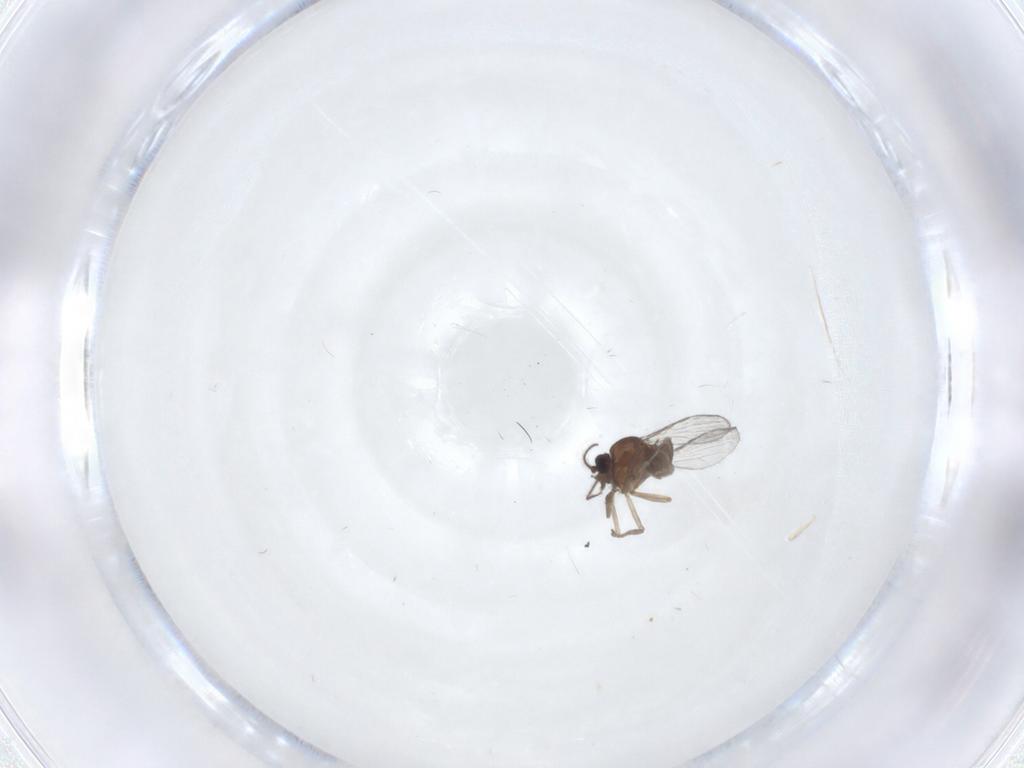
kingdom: Animalia
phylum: Arthropoda
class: Insecta
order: Diptera
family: Ceratopogonidae
